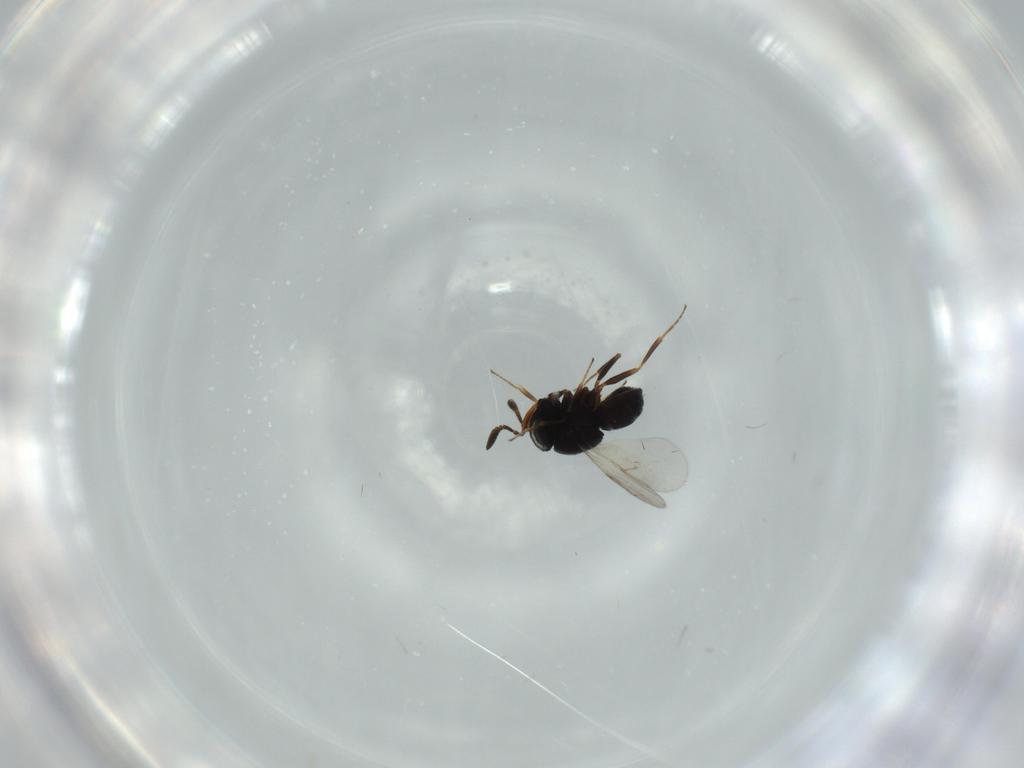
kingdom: Animalia
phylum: Arthropoda
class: Insecta
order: Hymenoptera
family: Scelionidae
